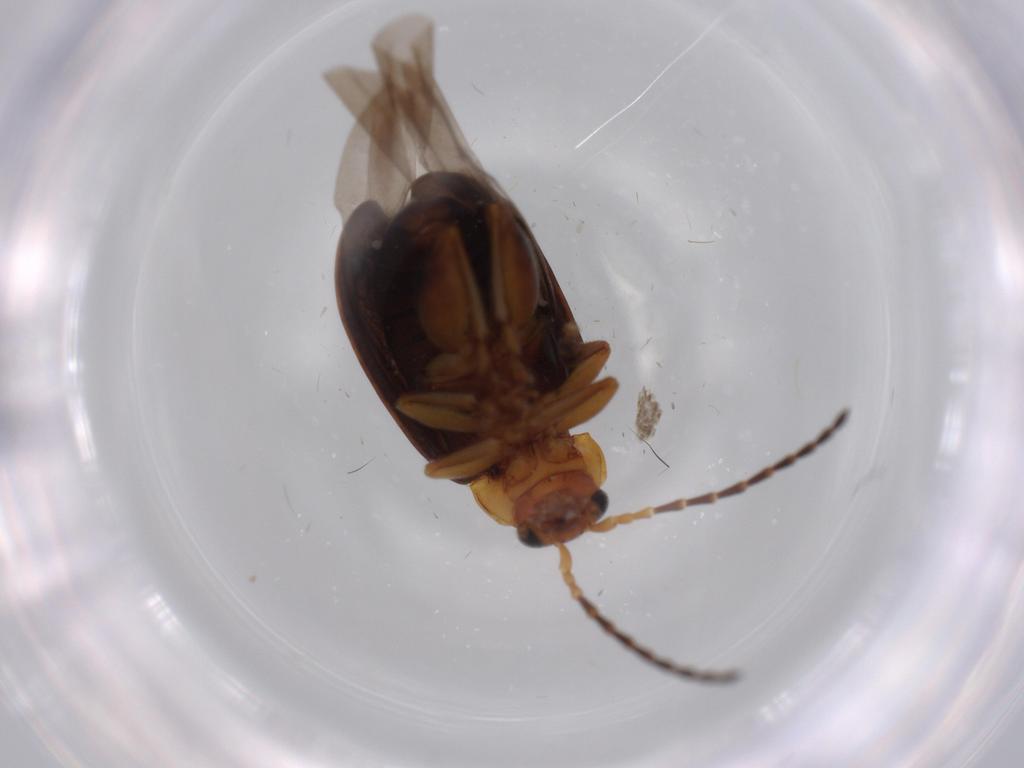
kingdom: Animalia
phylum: Arthropoda
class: Insecta
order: Coleoptera
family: Chrysomelidae
